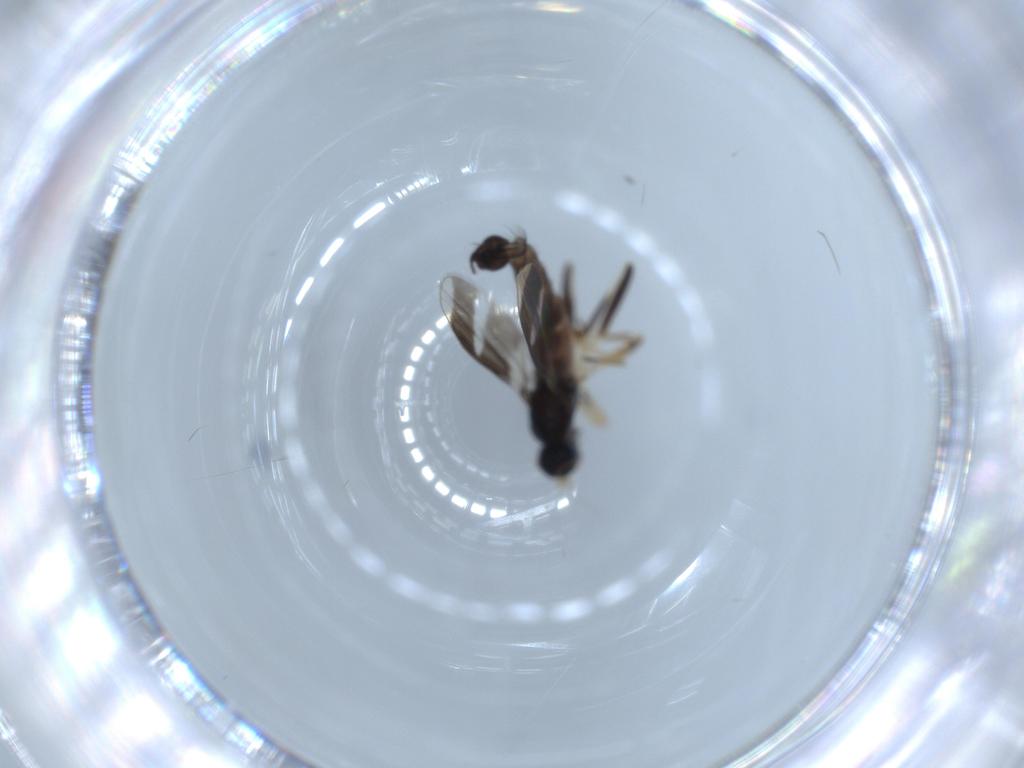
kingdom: Animalia
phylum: Arthropoda
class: Insecta
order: Diptera
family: Hybotidae
